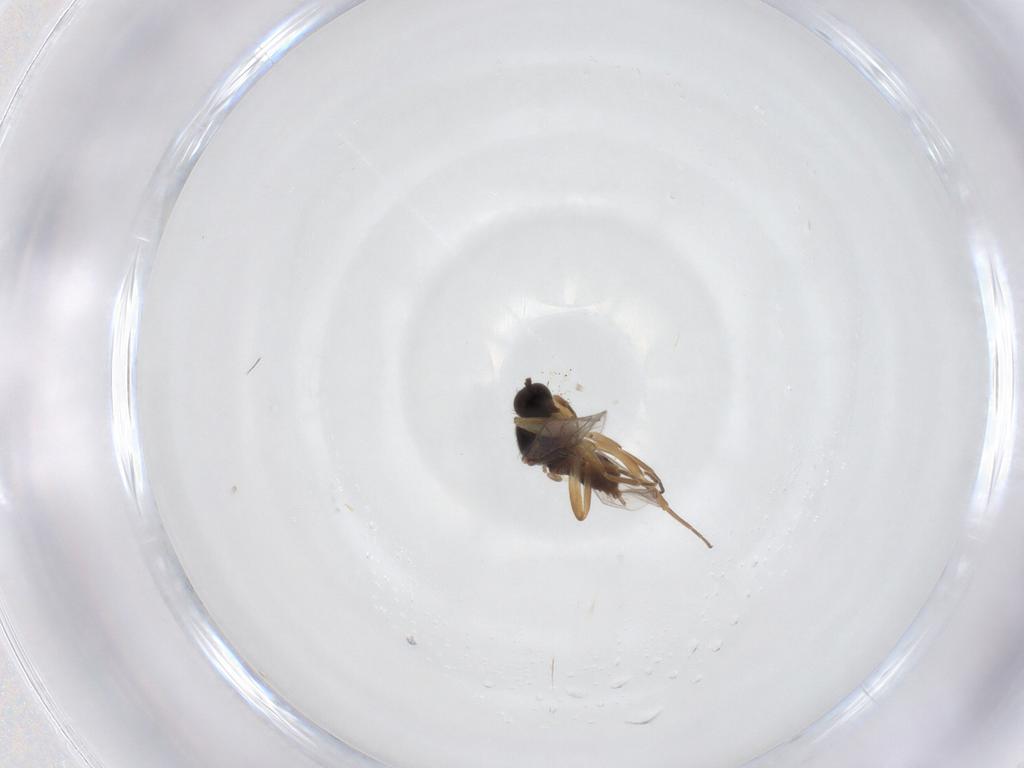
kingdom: Animalia
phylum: Arthropoda
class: Insecta
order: Diptera
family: Hybotidae
